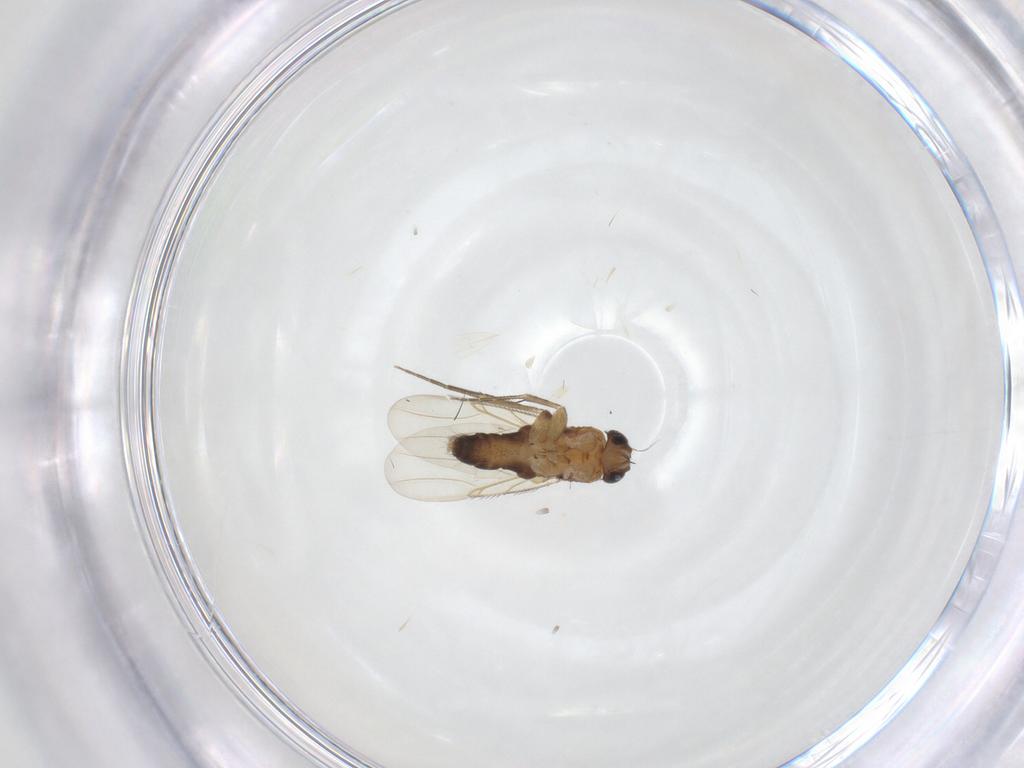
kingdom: Animalia
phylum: Arthropoda
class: Insecta
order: Diptera
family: Phoridae
